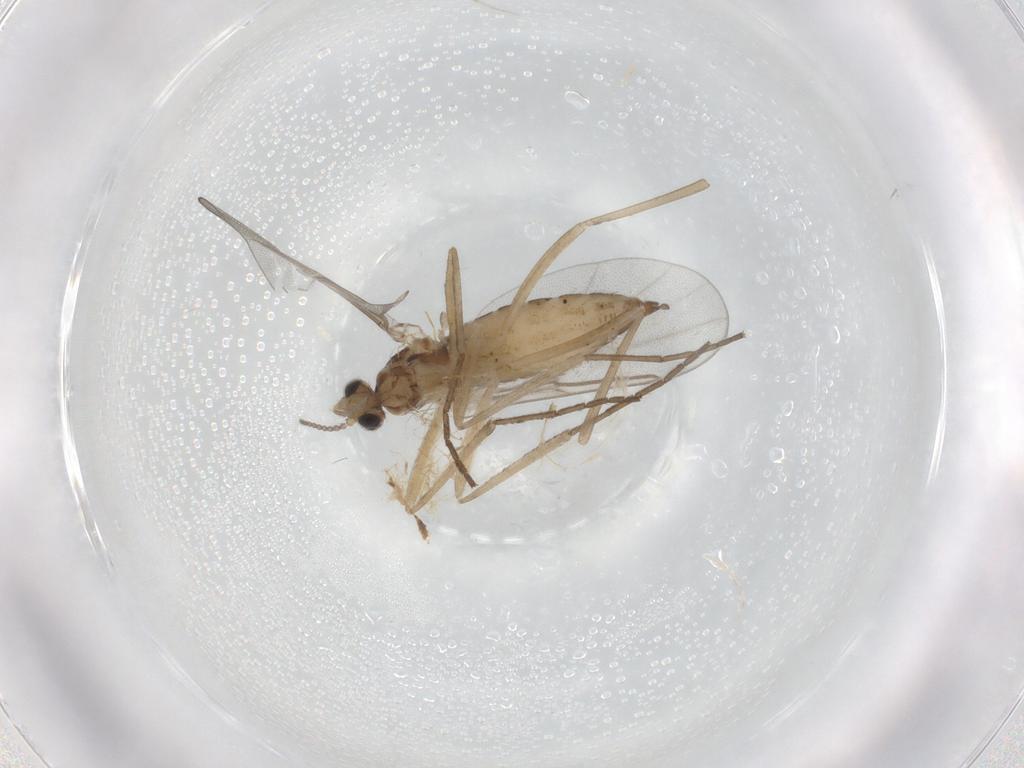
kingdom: Animalia
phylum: Arthropoda
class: Insecta
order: Diptera
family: Cecidomyiidae
